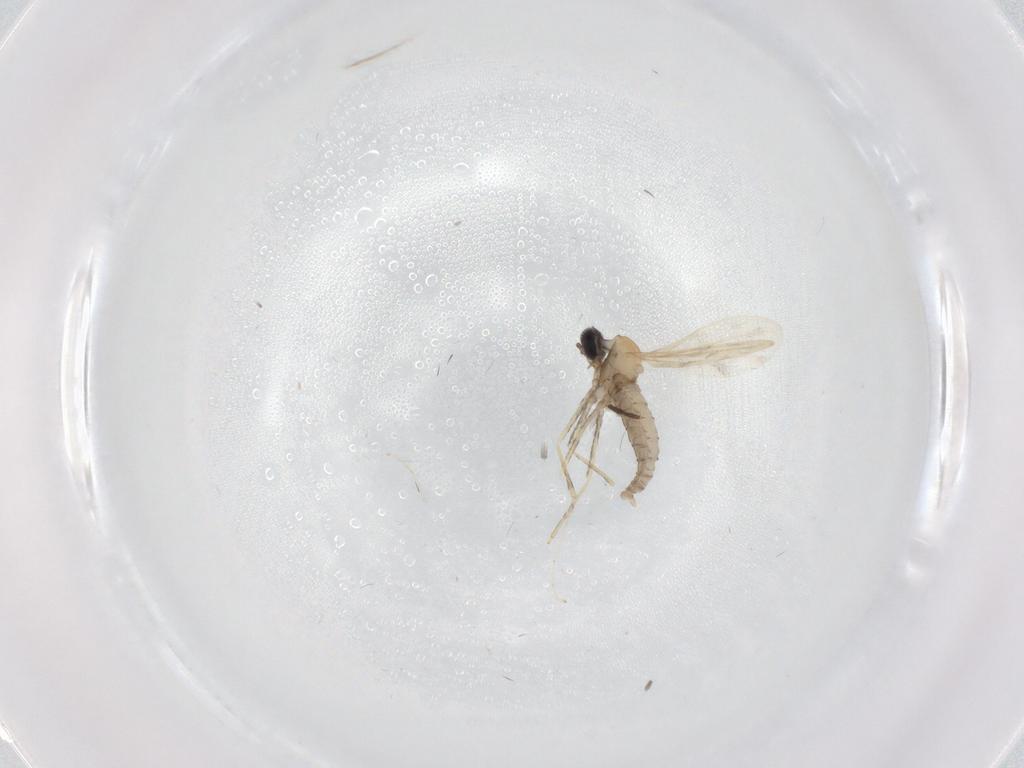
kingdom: Animalia
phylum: Arthropoda
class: Insecta
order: Diptera
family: Cecidomyiidae
